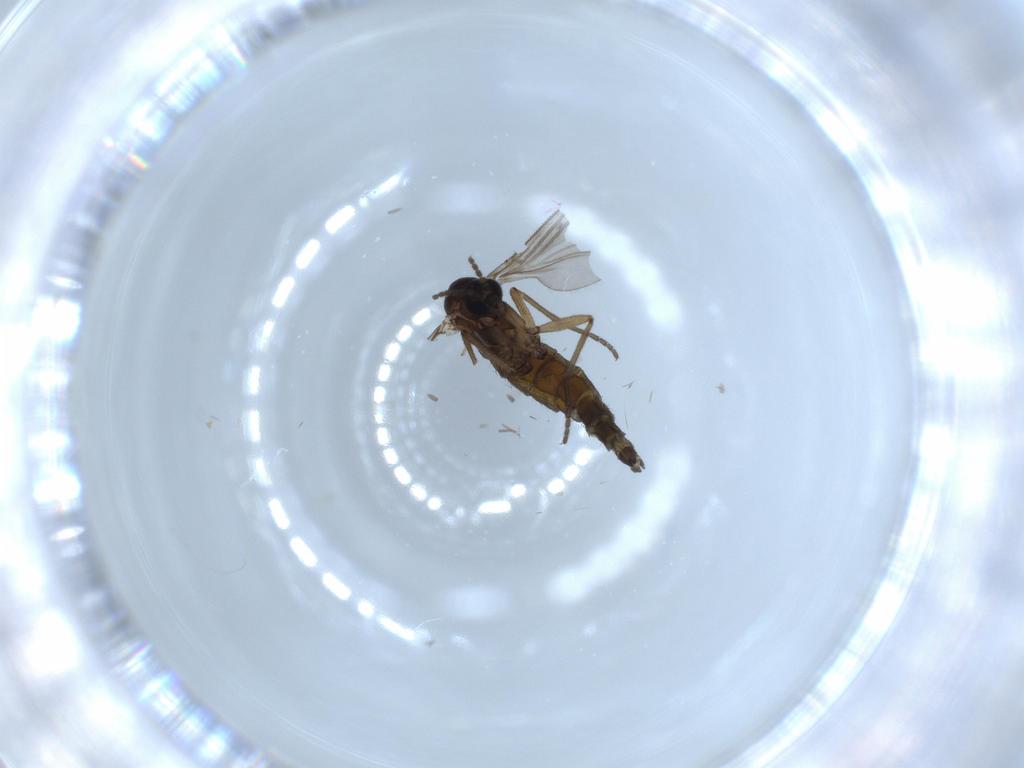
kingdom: Animalia
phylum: Arthropoda
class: Insecta
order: Diptera
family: Sciaridae
